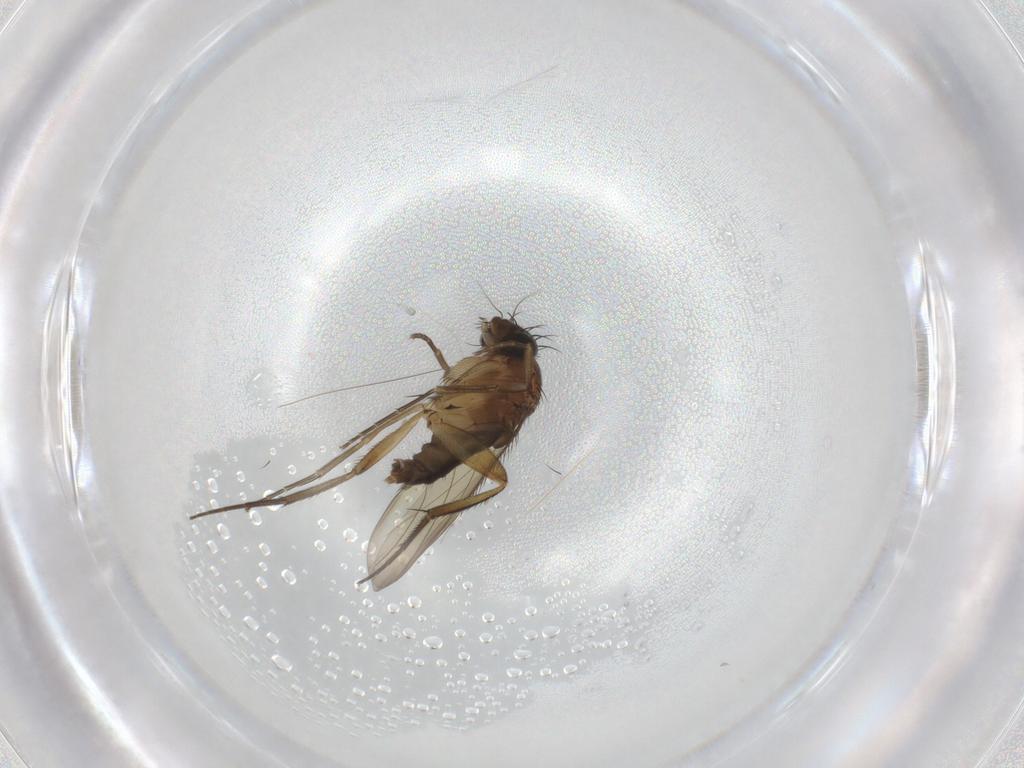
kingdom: Animalia
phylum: Arthropoda
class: Insecta
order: Diptera
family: Phoridae
